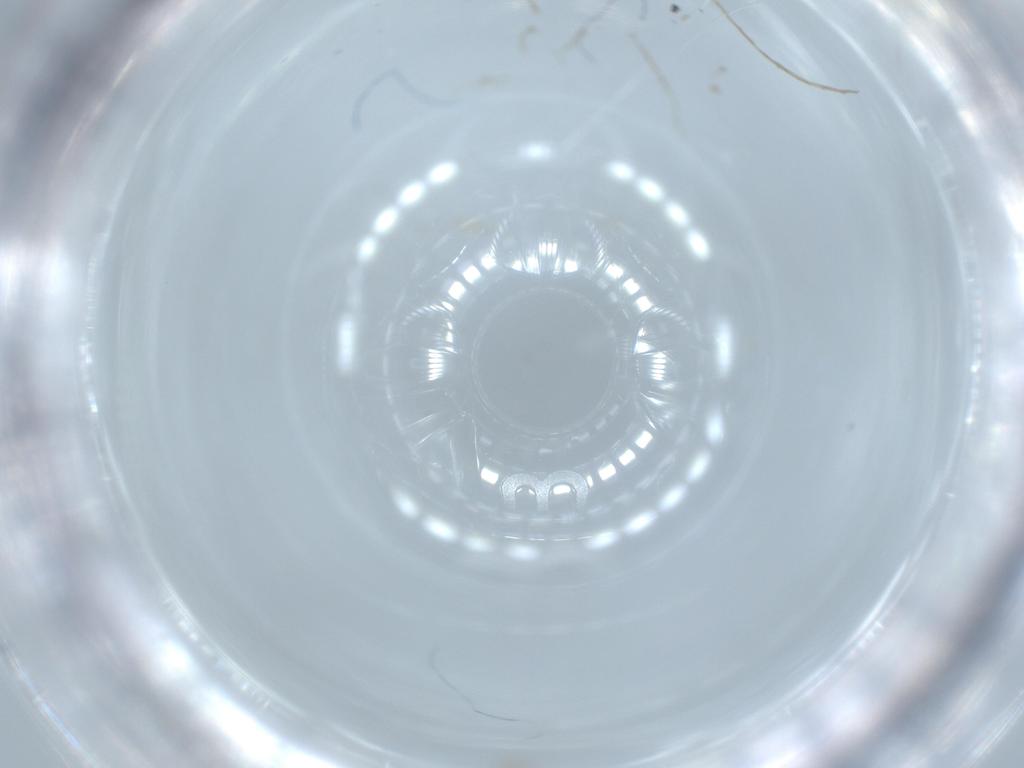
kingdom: Animalia
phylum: Arthropoda
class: Insecta
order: Diptera
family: Cecidomyiidae
